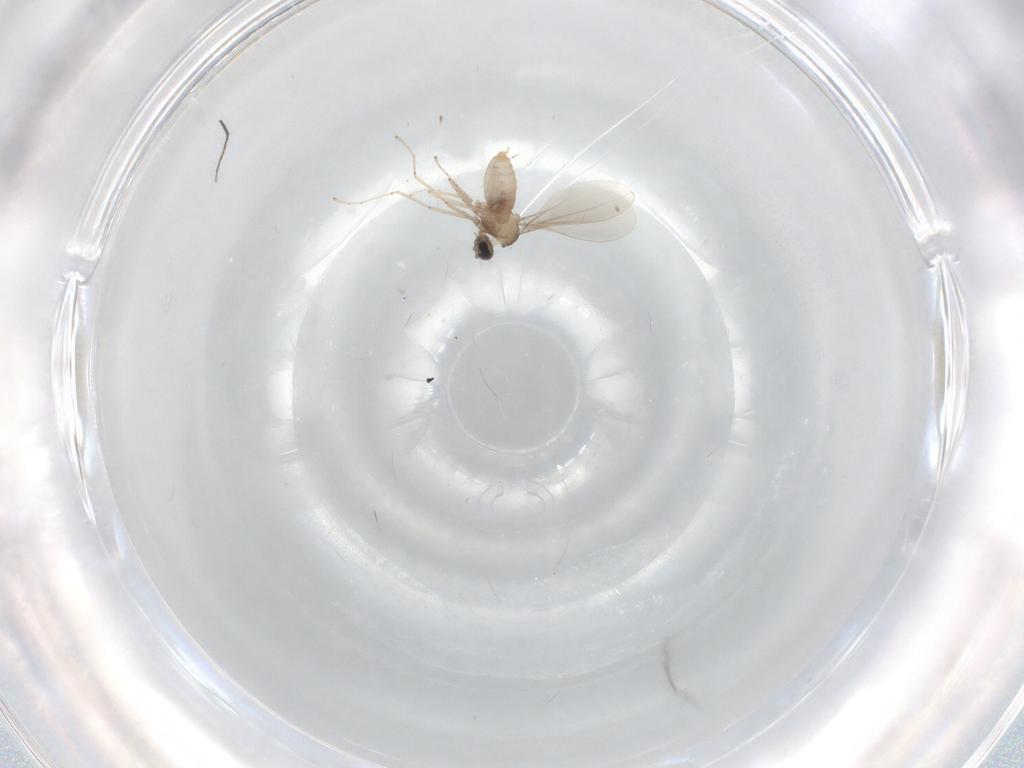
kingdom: Animalia
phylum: Arthropoda
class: Insecta
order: Diptera
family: Cecidomyiidae
